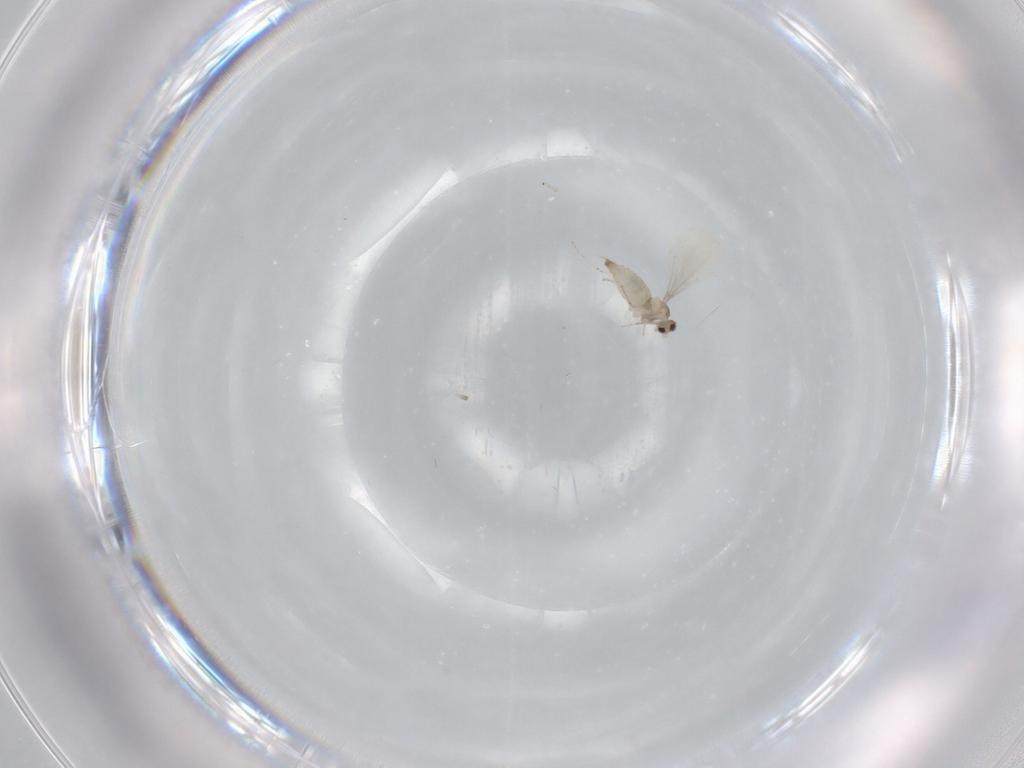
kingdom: Animalia
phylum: Arthropoda
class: Insecta
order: Diptera
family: Cecidomyiidae
